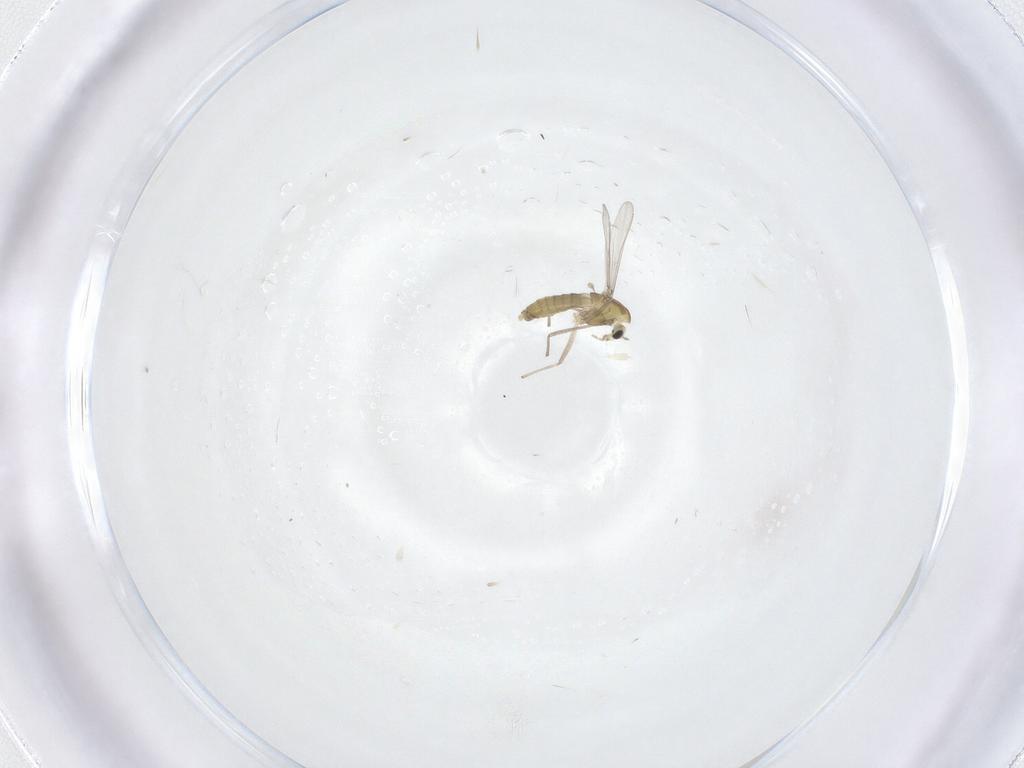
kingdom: Animalia
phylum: Arthropoda
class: Insecta
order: Diptera
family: Chironomidae
